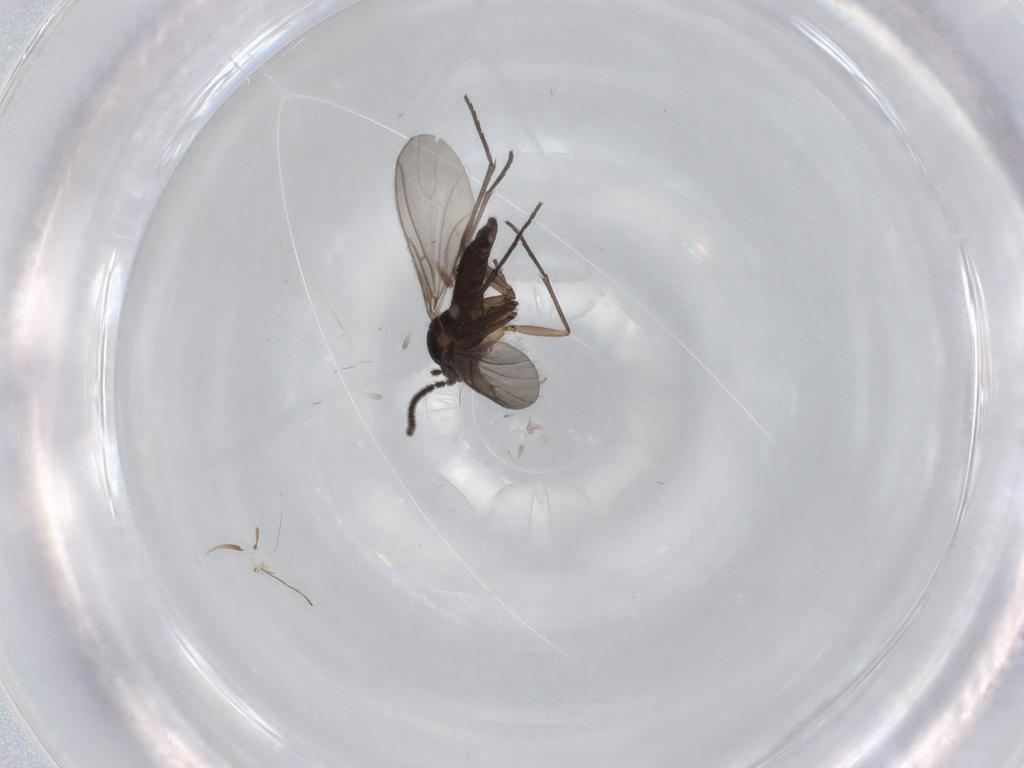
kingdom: Animalia
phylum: Arthropoda
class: Insecta
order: Diptera
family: Sciaridae
